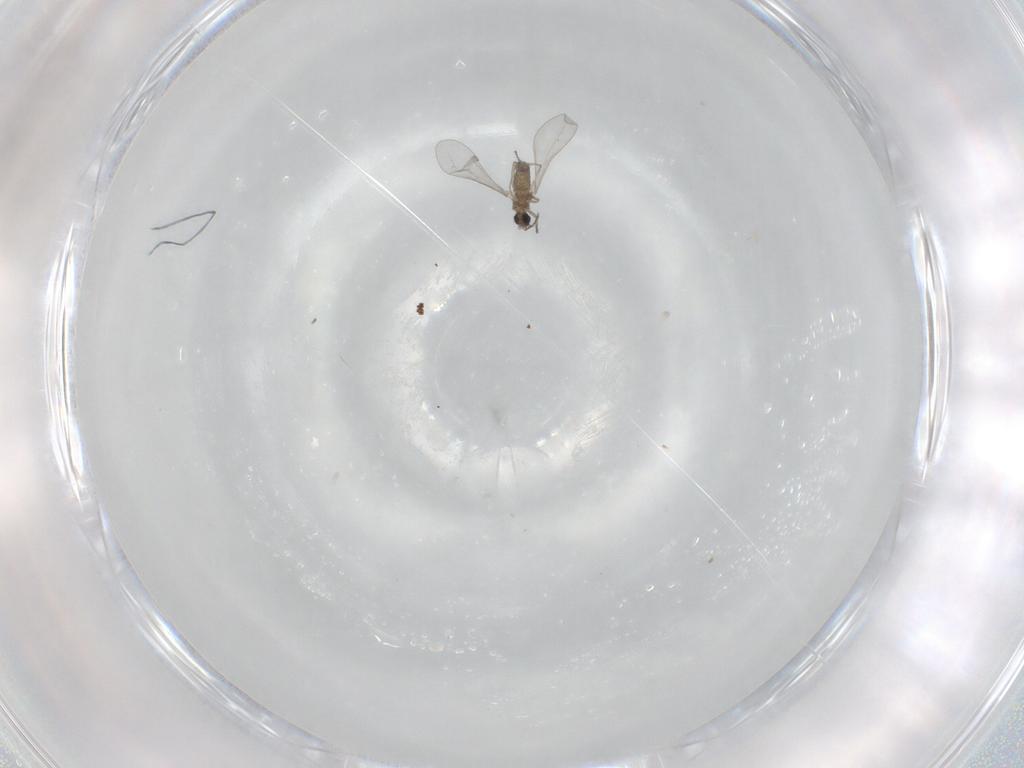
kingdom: Animalia
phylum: Arthropoda
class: Insecta
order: Diptera
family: Cecidomyiidae
